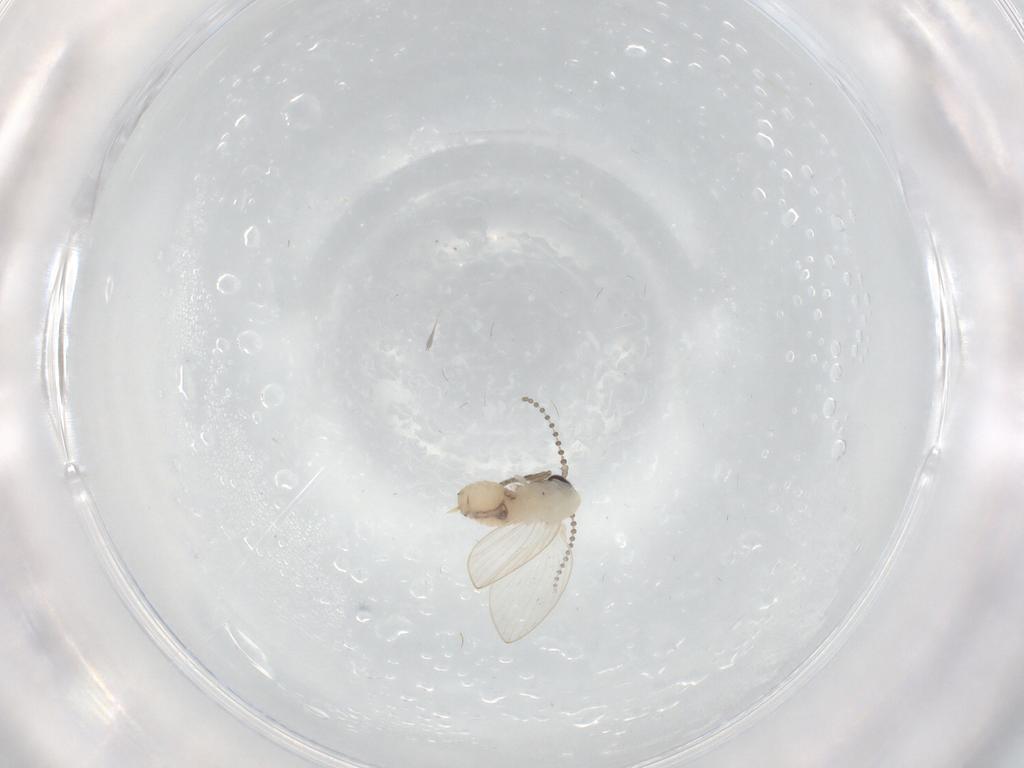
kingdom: Animalia
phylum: Arthropoda
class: Insecta
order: Diptera
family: Psychodidae
